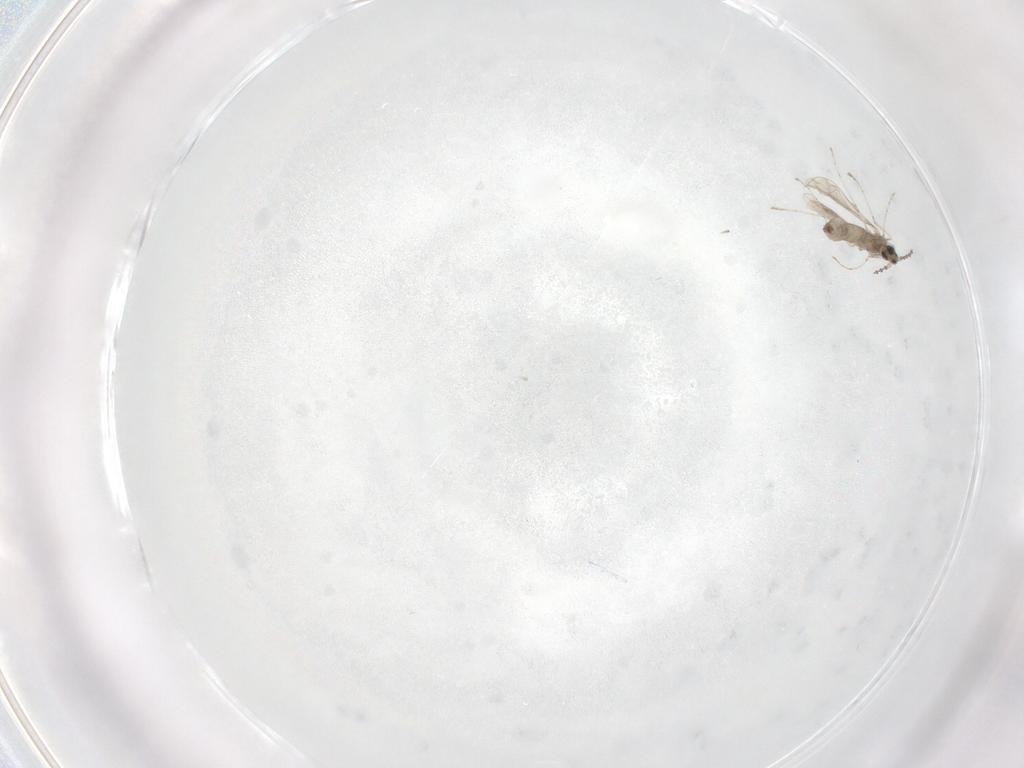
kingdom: Animalia
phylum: Arthropoda
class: Insecta
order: Diptera
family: Cecidomyiidae
